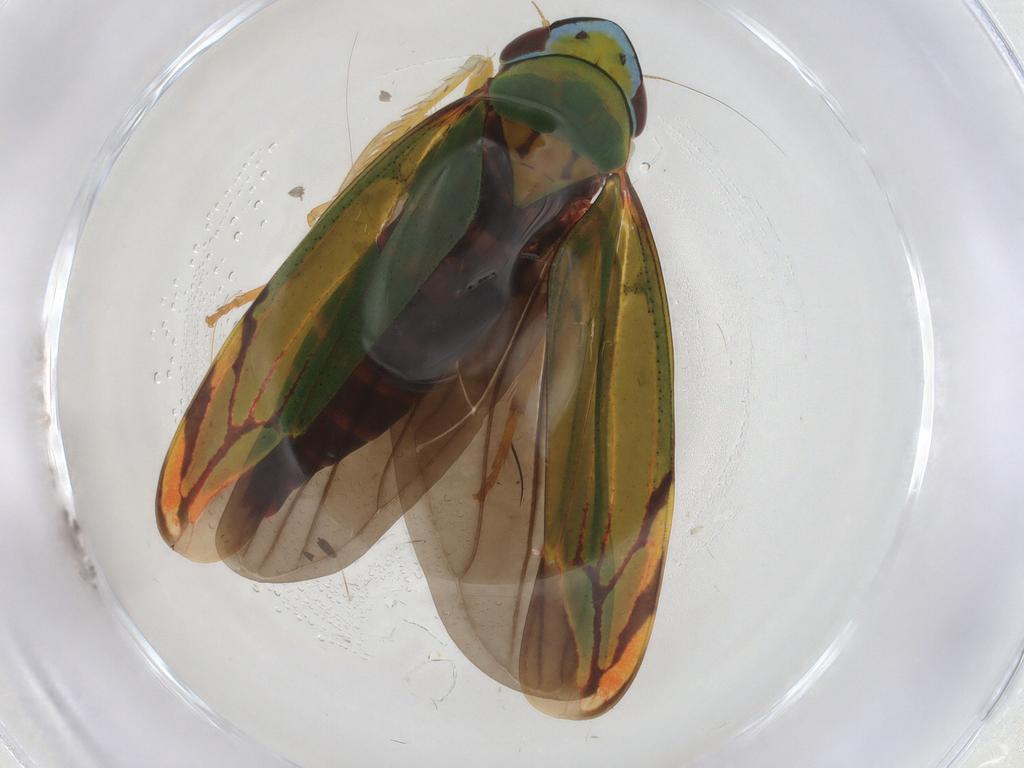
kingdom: Animalia
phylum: Arthropoda
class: Insecta
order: Hemiptera
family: Cicadellidae
